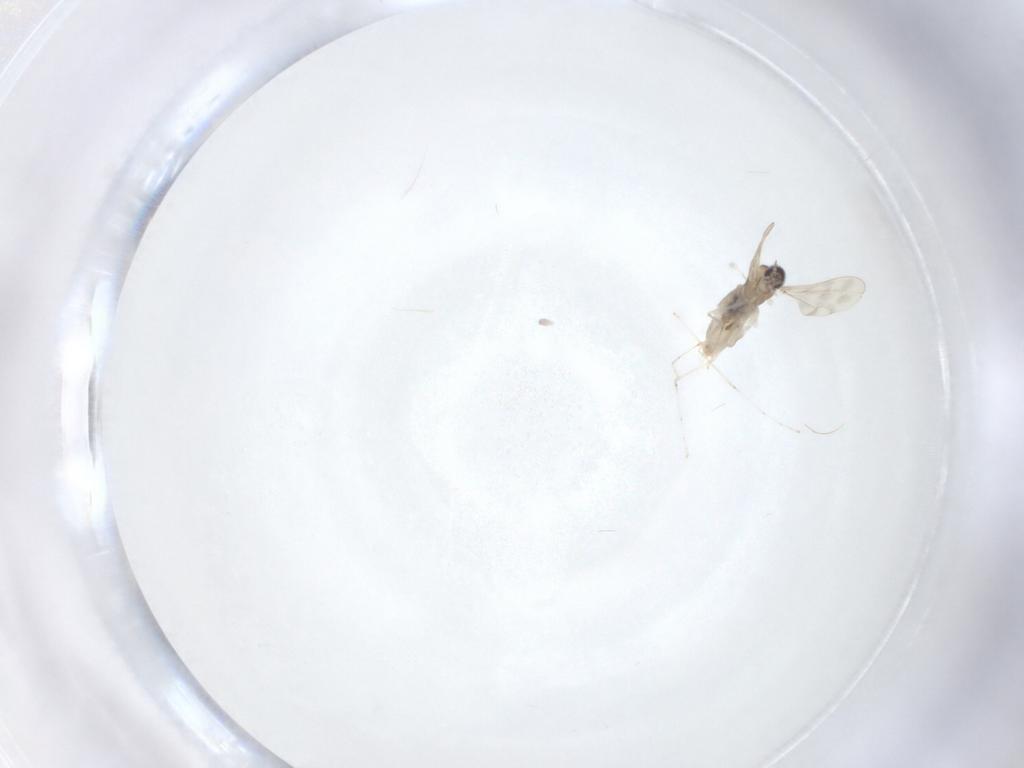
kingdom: Animalia
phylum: Arthropoda
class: Insecta
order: Diptera
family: Cecidomyiidae
